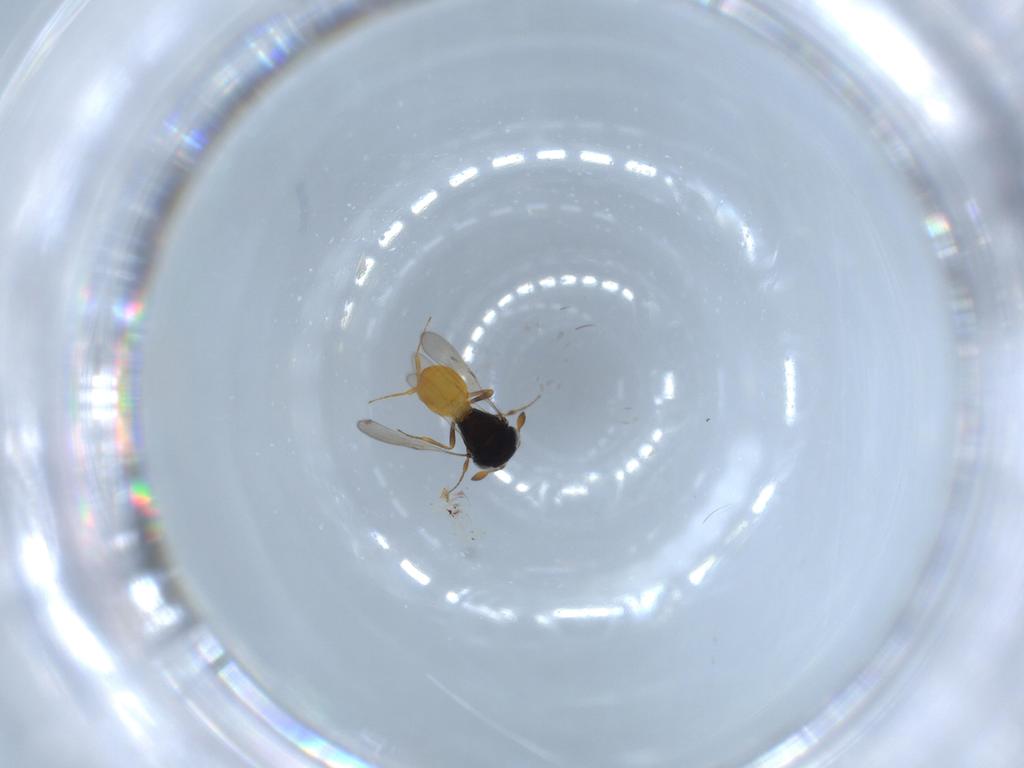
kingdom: Animalia
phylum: Arthropoda
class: Insecta
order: Hymenoptera
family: Scelionidae
